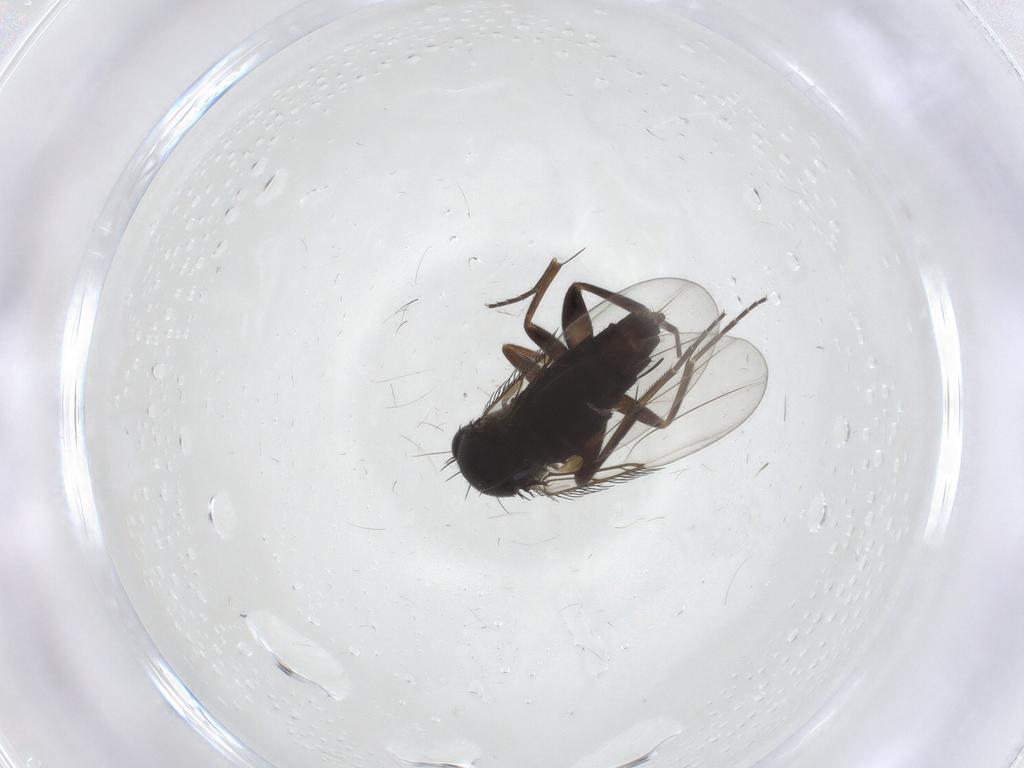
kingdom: Animalia
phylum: Arthropoda
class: Insecta
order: Diptera
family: Phoridae
